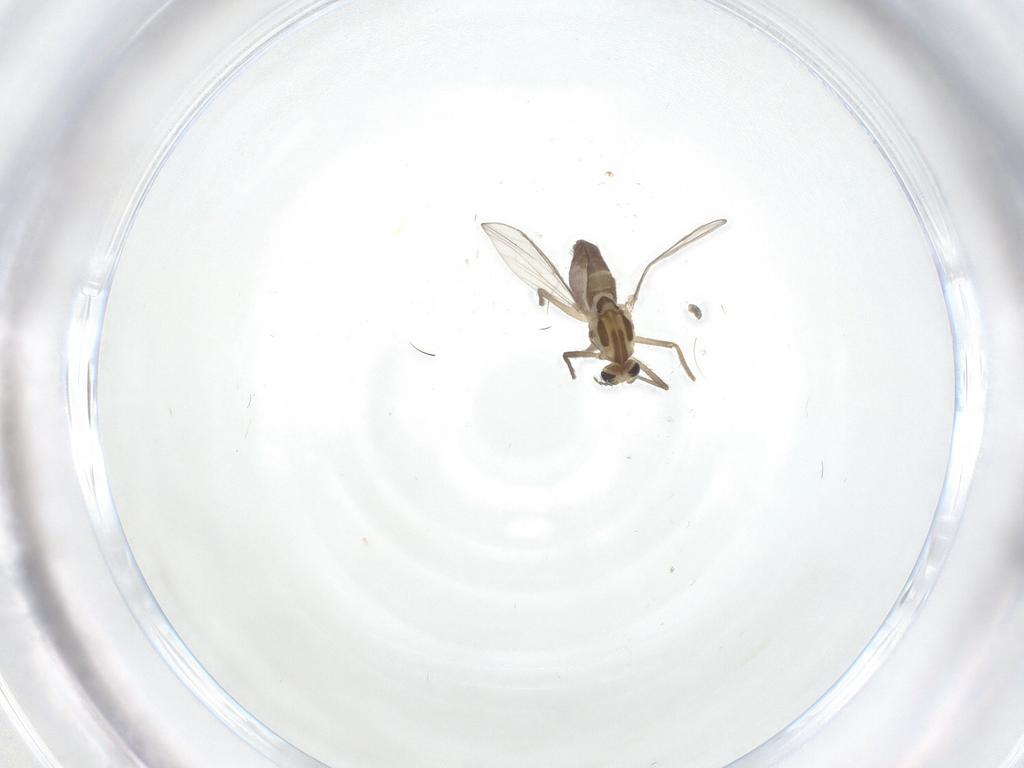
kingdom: Animalia
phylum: Arthropoda
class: Insecta
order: Diptera
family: Chironomidae
